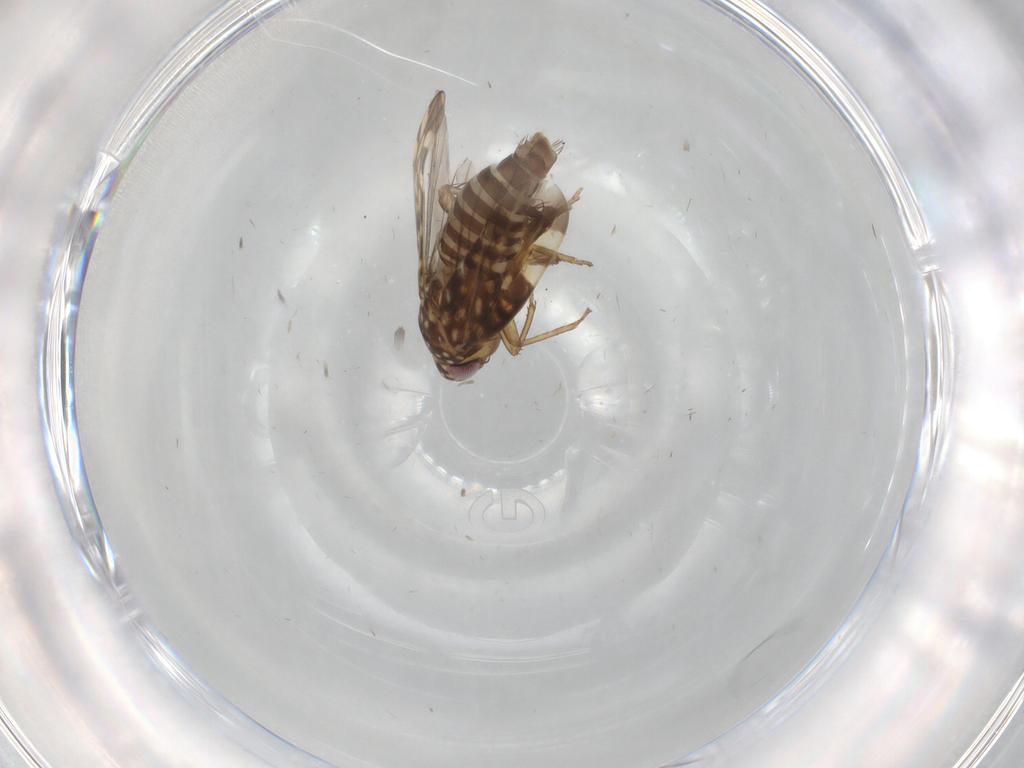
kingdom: Animalia
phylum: Arthropoda
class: Insecta
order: Hemiptera
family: Cicadellidae
